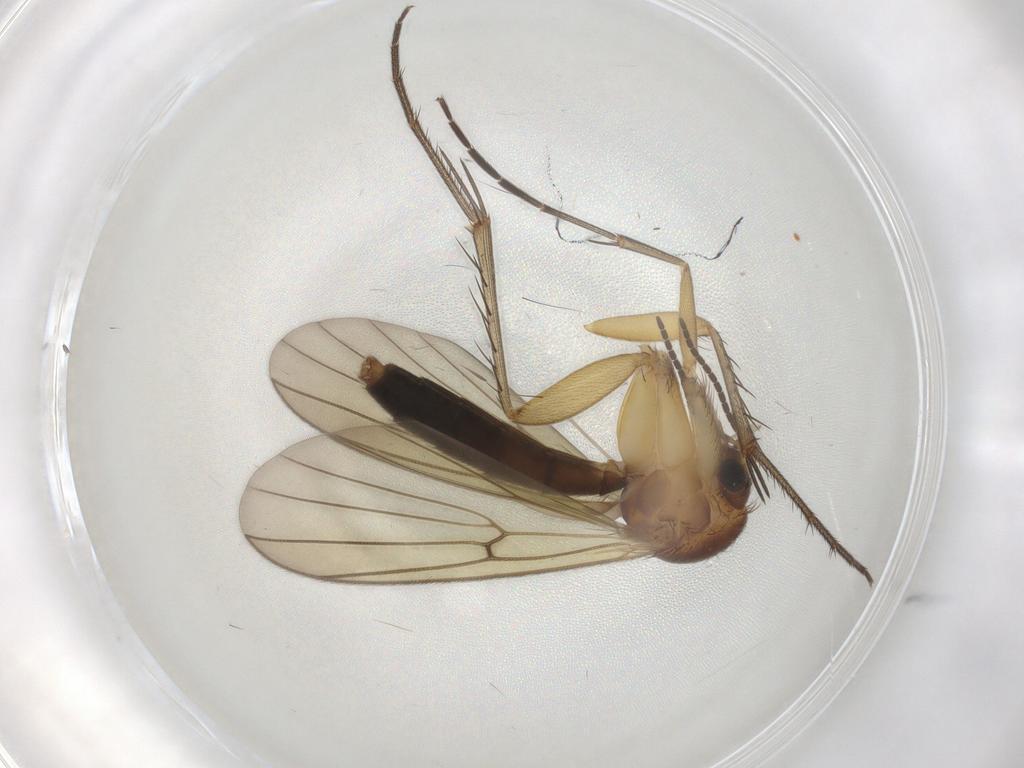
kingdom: Animalia
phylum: Arthropoda
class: Insecta
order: Diptera
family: Mycetophilidae
